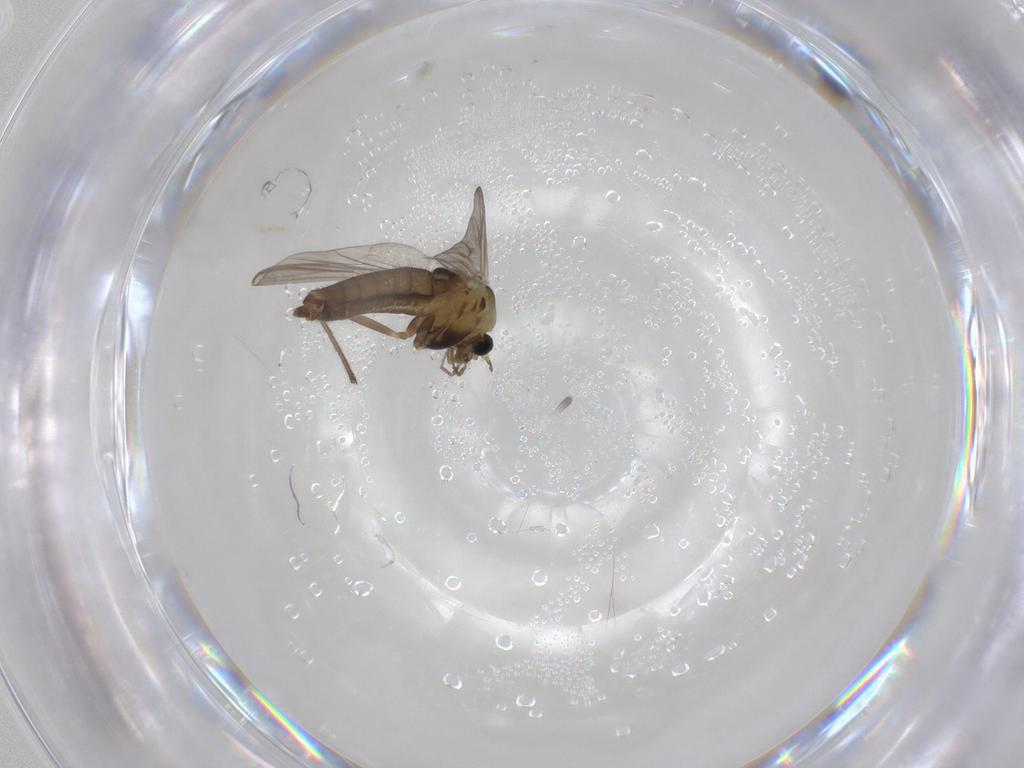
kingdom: Animalia
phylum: Arthropoda
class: Insecta
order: Diptera
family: Chironomidae
